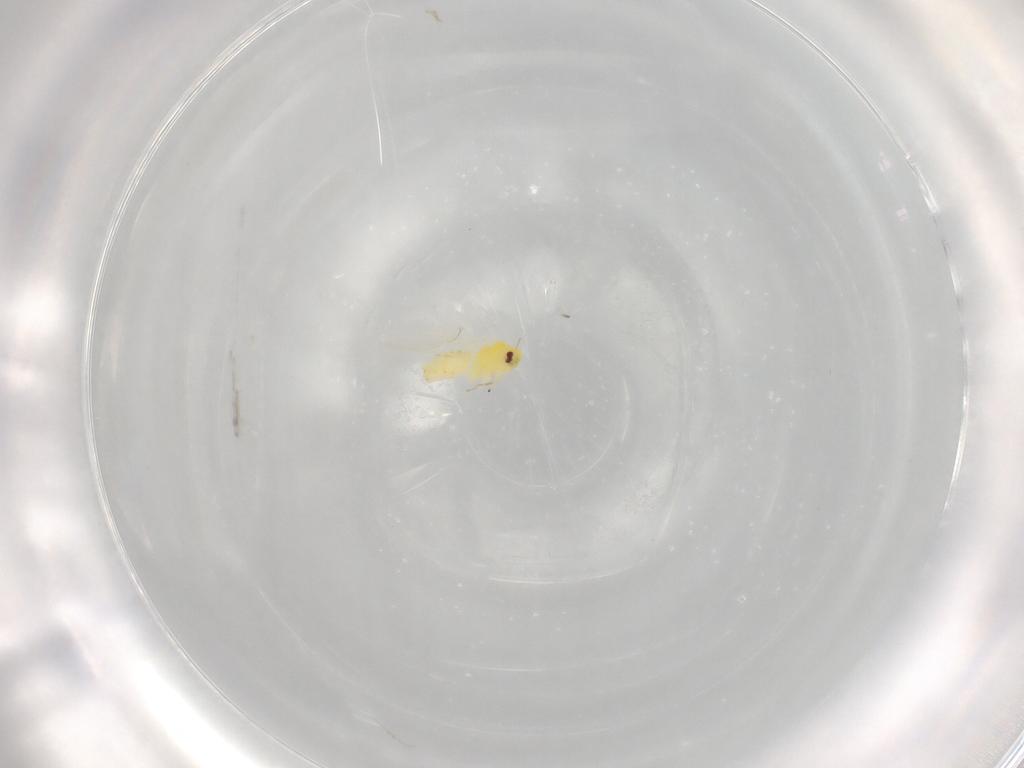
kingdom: Animalia
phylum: Arthropoda
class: Insecta
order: Hemiptera
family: Aleyrodidae
